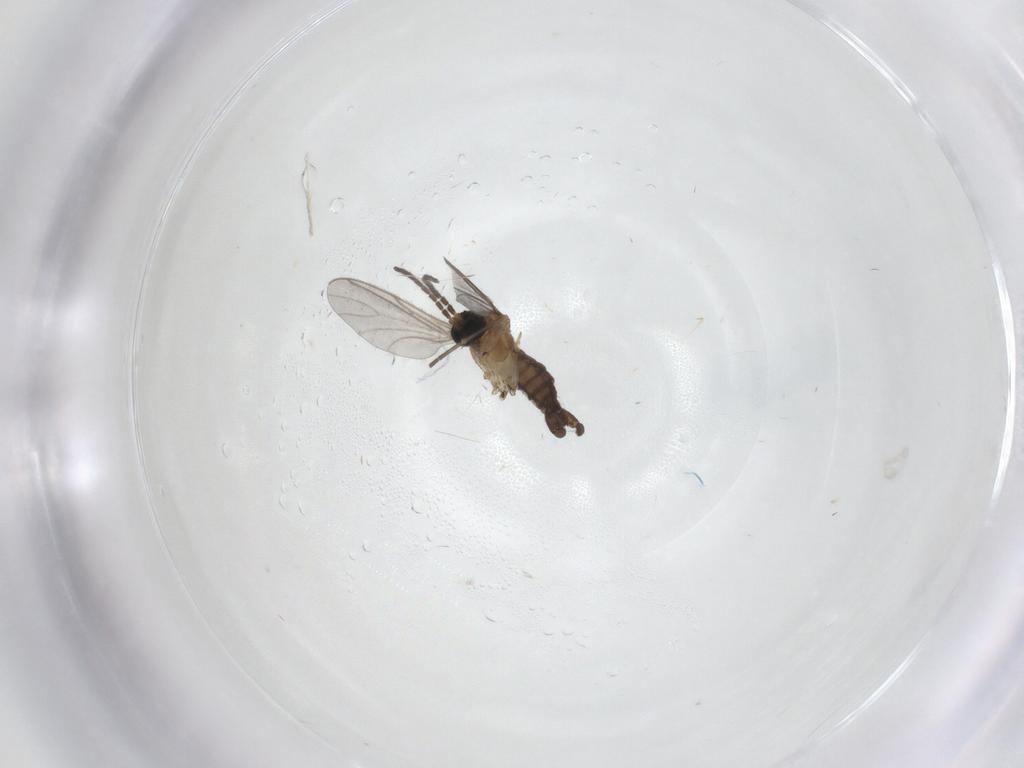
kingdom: Animalia
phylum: Arthropoda
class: Insecta
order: Diptera
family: Sciaridae
